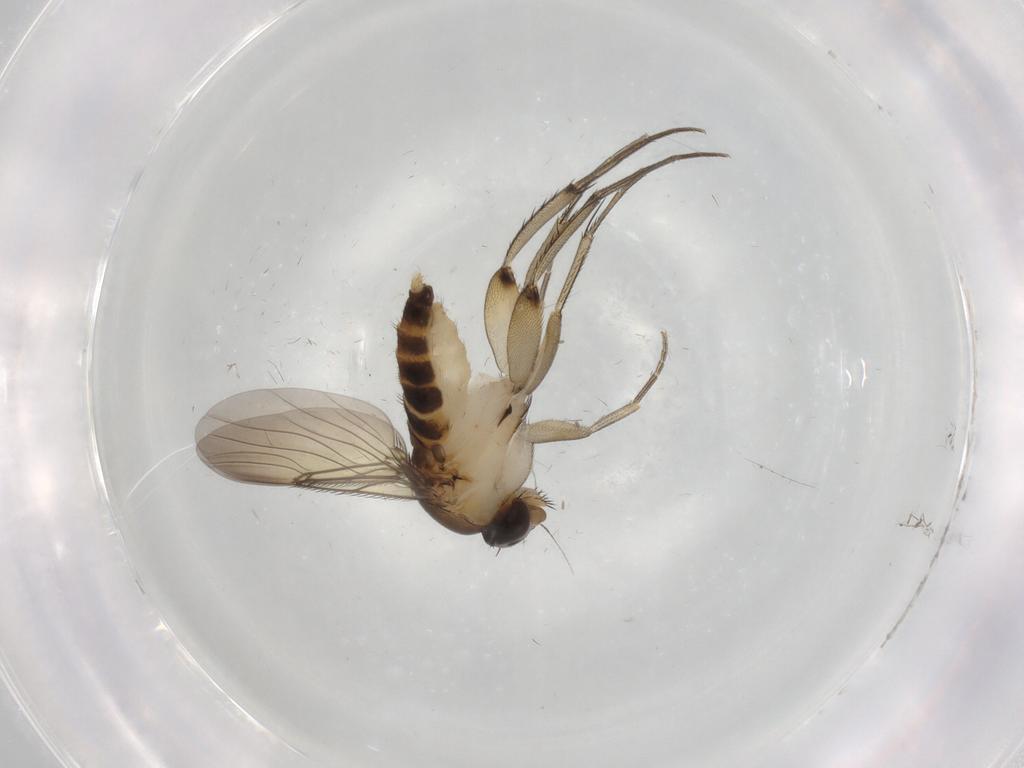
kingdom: Animalia
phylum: Arthropoda
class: Insecta
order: Diptera
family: Phoridae
